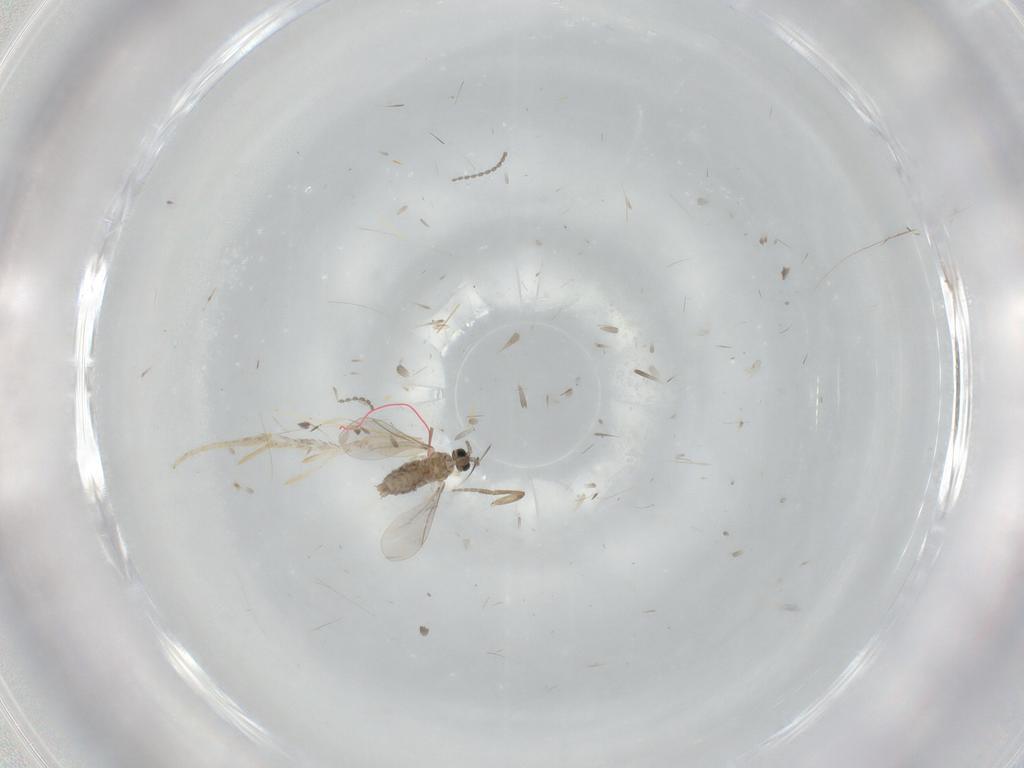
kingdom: Animalia
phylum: Arthropoda
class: Insecta
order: Diptera
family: Cecidomyiidae
